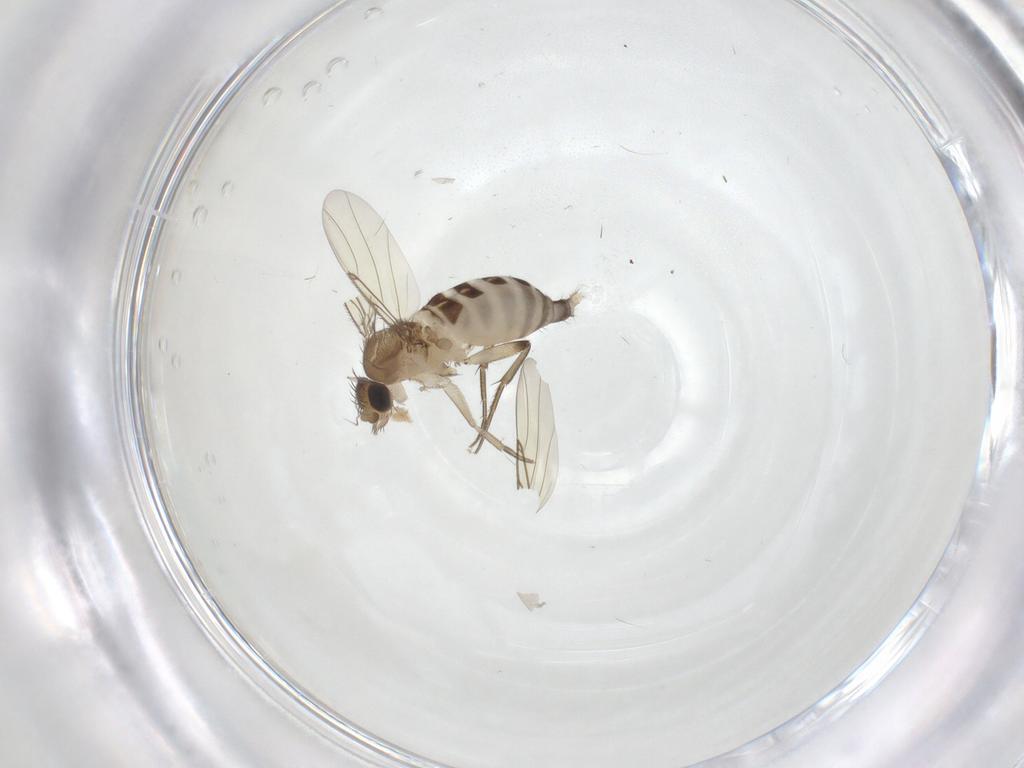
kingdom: Animalia
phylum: Arthropoda
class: Insecta
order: Diptera
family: Phoridae
